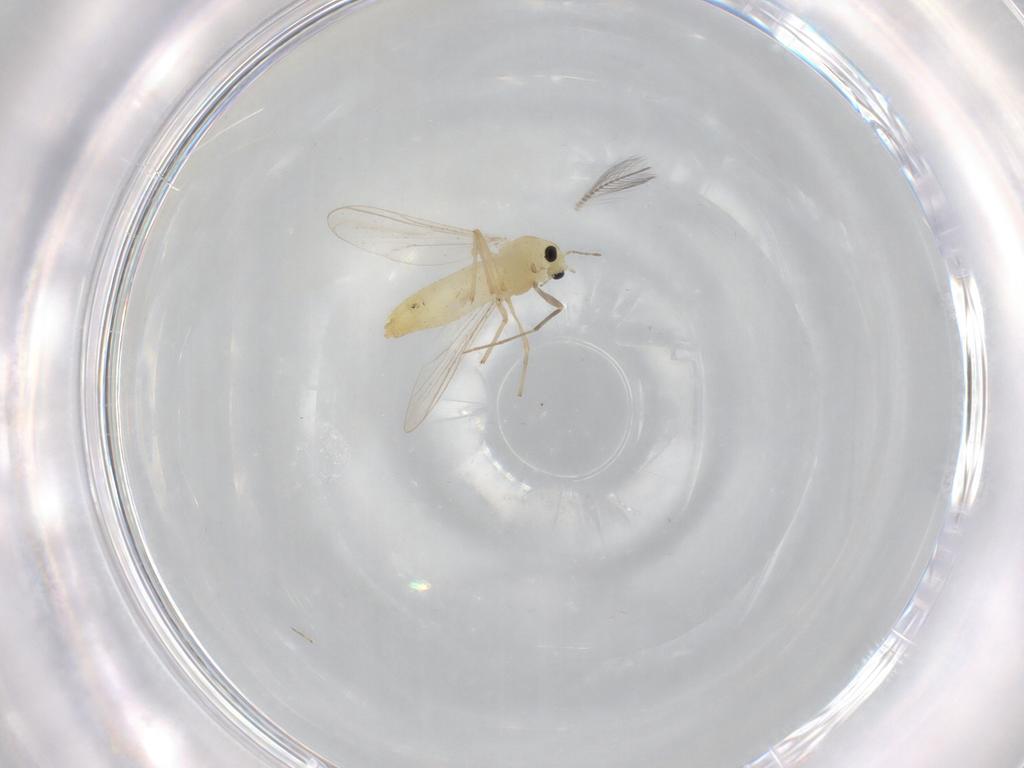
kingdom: Animalia
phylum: Arthropoda
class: Insecta
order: Diptera
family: Chironomidae
